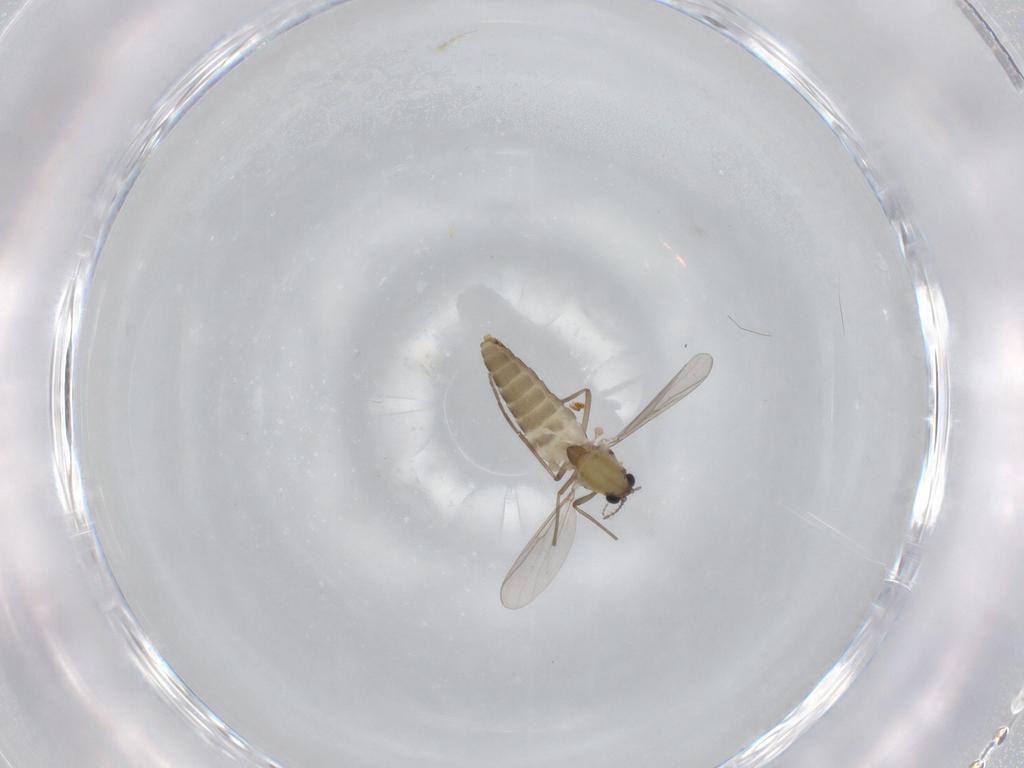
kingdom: Animalia
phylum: Arthropoda
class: Insecta
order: Diptera
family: Chironomidae
